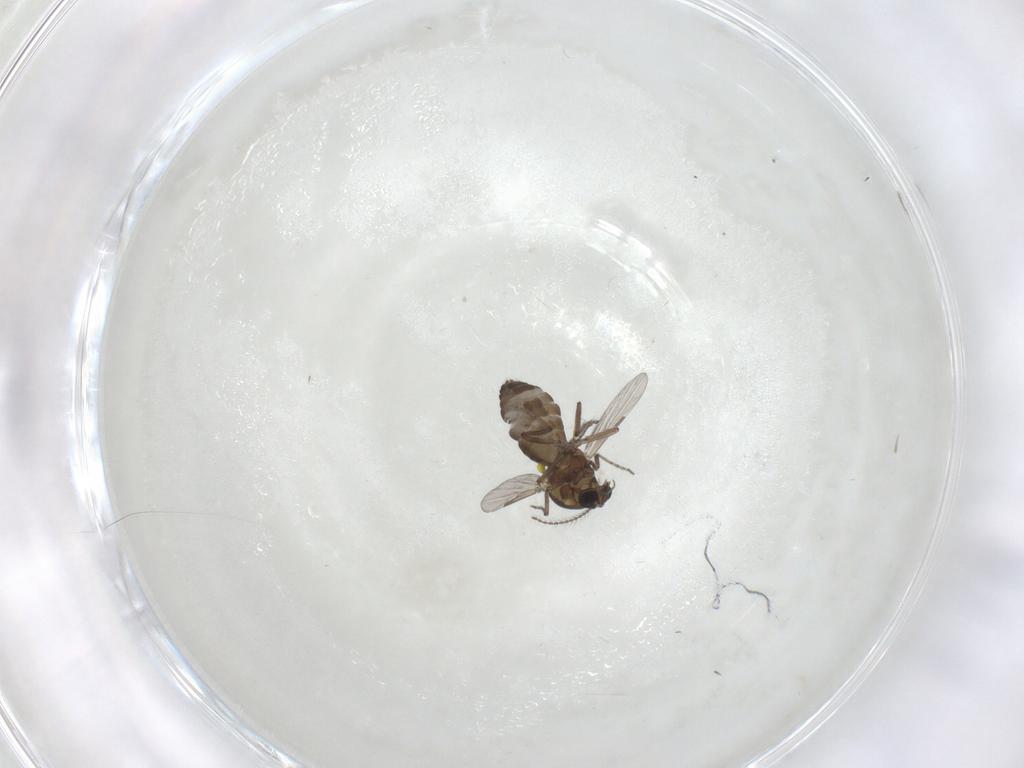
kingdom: Animalia
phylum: Arthropoda
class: Insecta
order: Diptera
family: Ceratopogonidae
